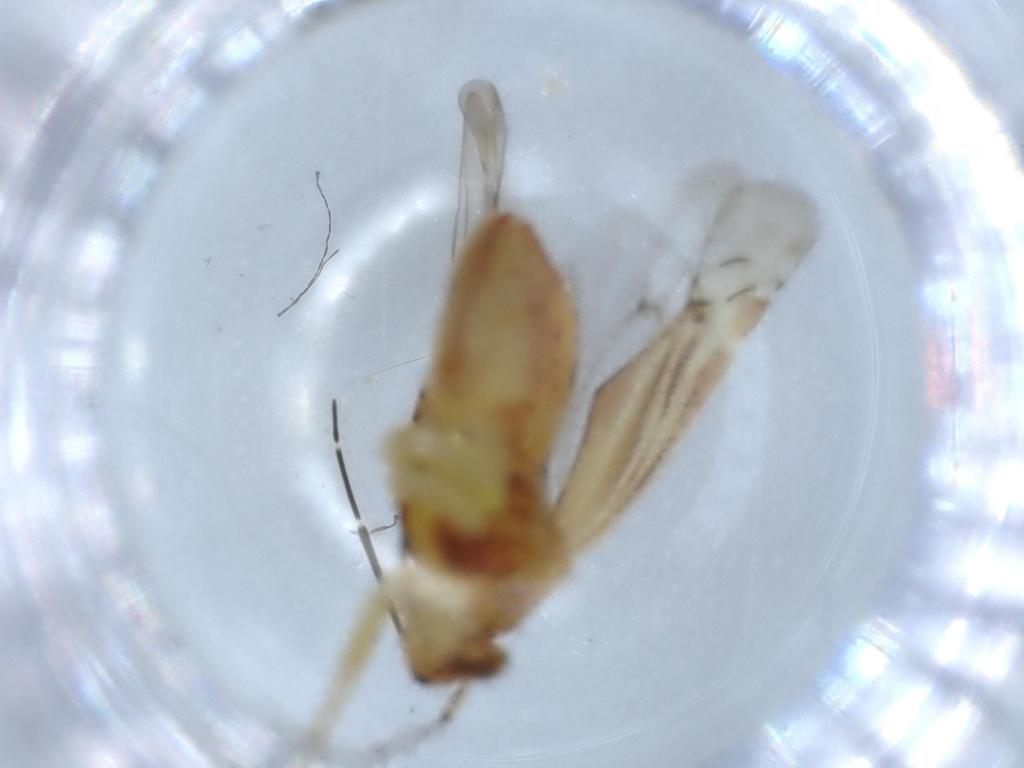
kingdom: Animalia
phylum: Arthropoda
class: Insecta
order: Hemiptera
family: Miridae
